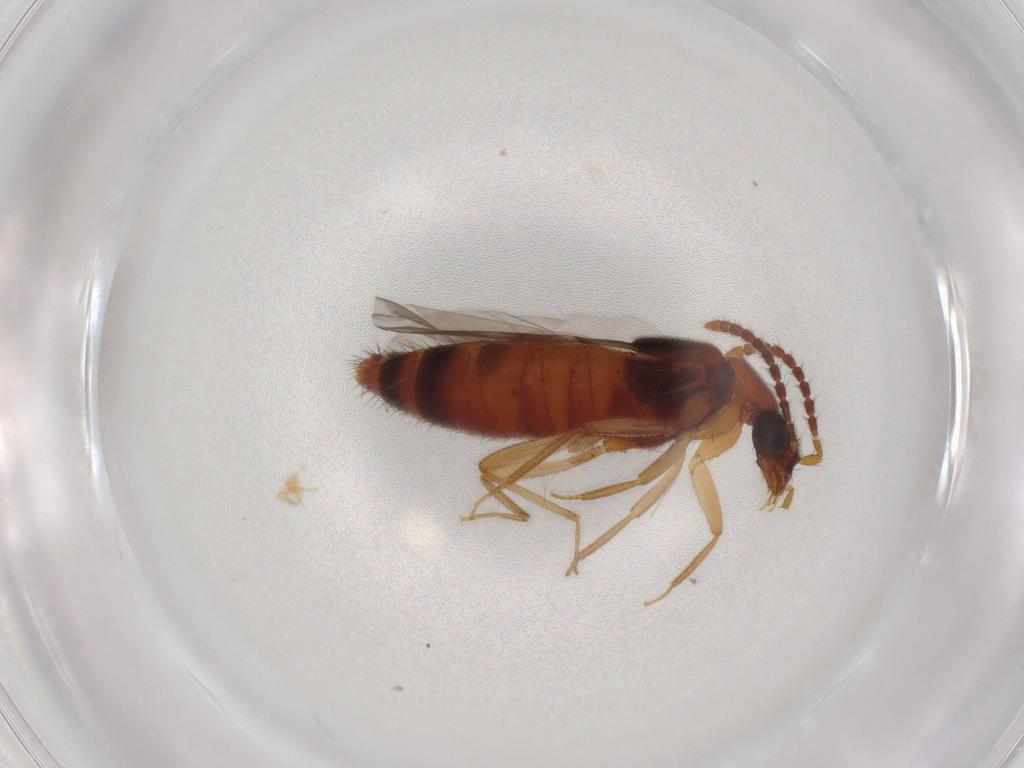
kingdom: Animalia
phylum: Arthropoda
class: Insecta
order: Coleoptera
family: Staphylinidae
